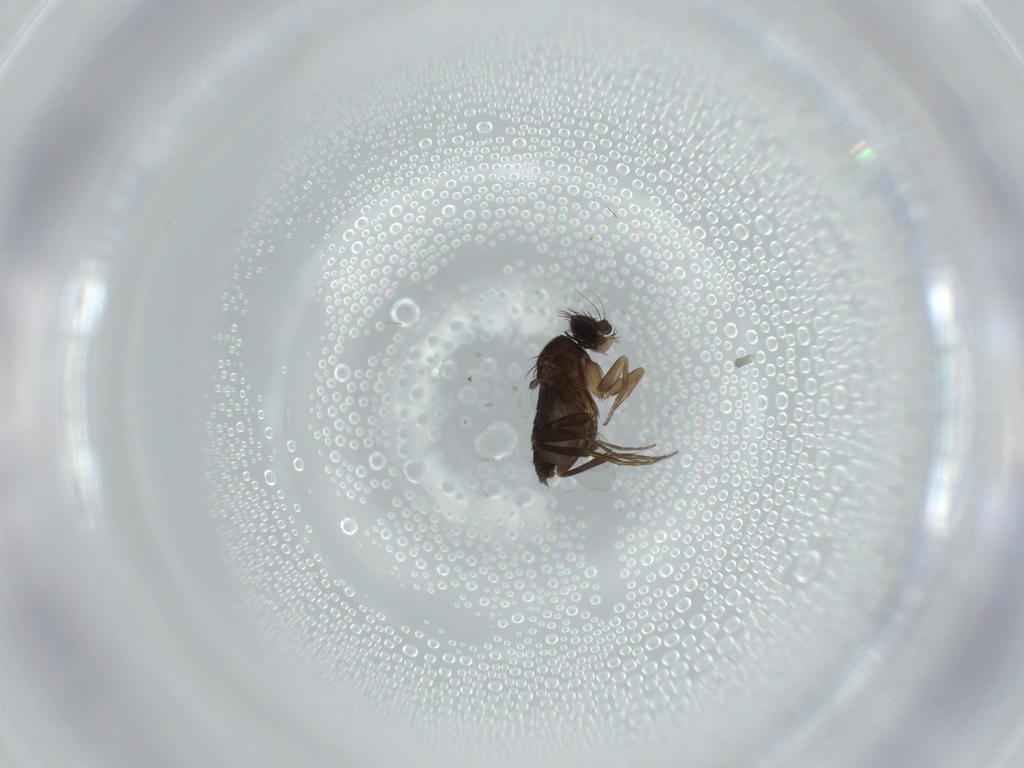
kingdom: Animalia
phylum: Arthropoda
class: Insecta
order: Diptera
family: Phoridae
